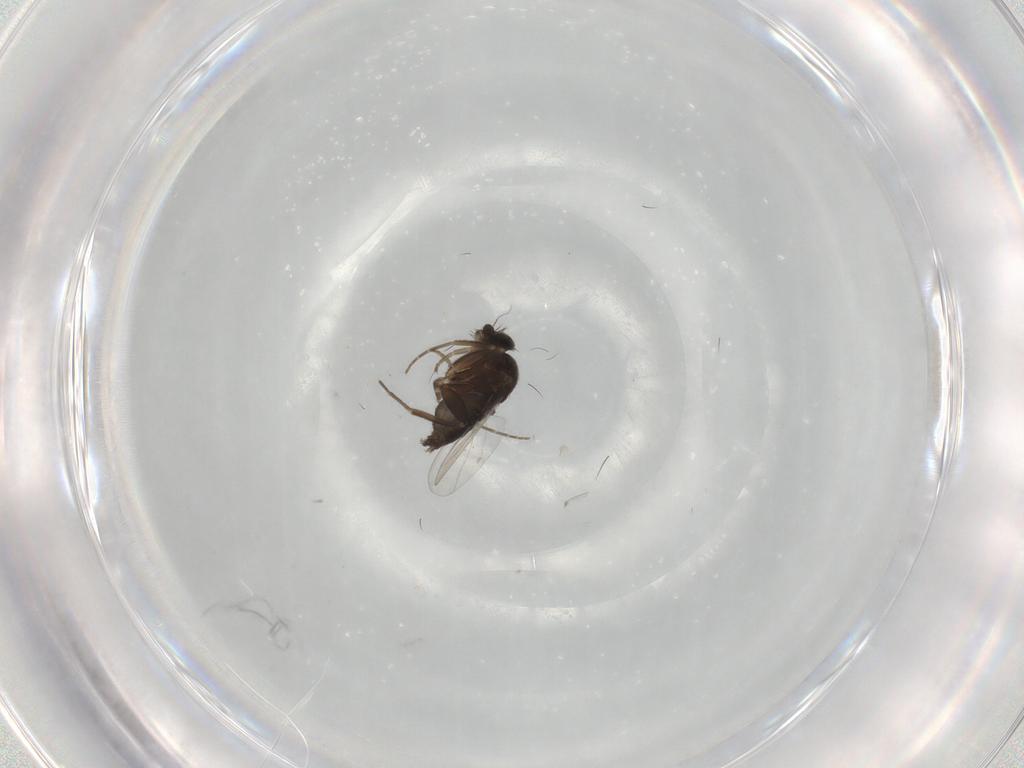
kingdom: Animalia
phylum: Arthropoda
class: Insecta
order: Diptera
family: Phoridae
